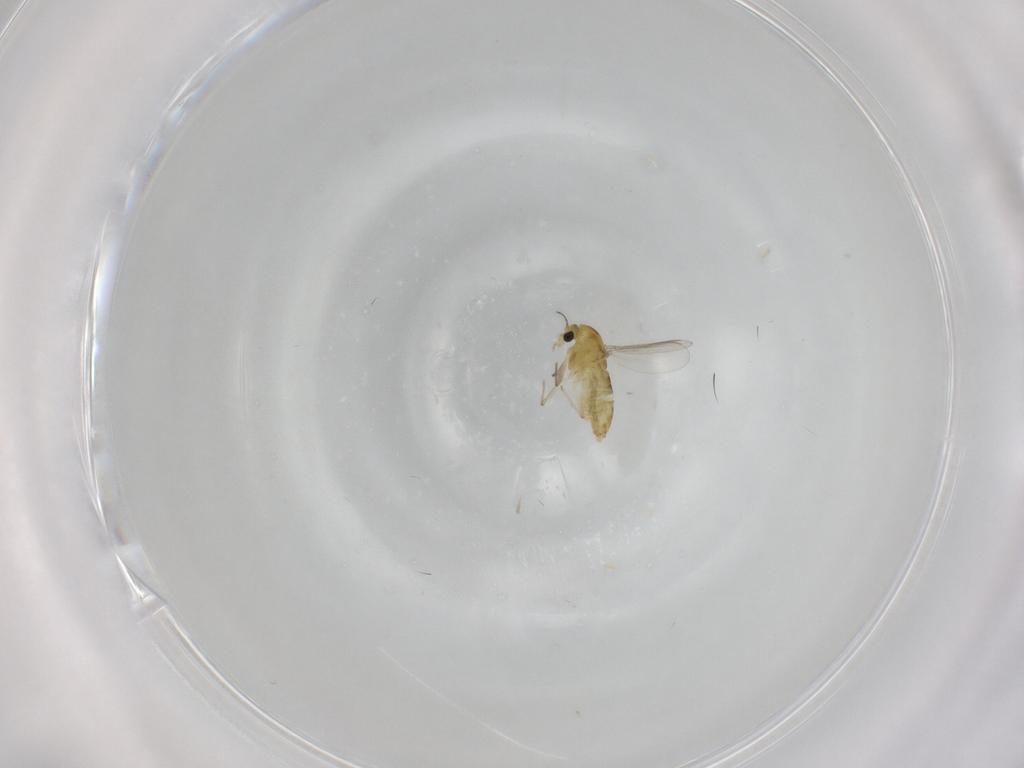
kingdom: Animalia
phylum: Arthropoda
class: Insecta
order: Diptera
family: Chironomidae
